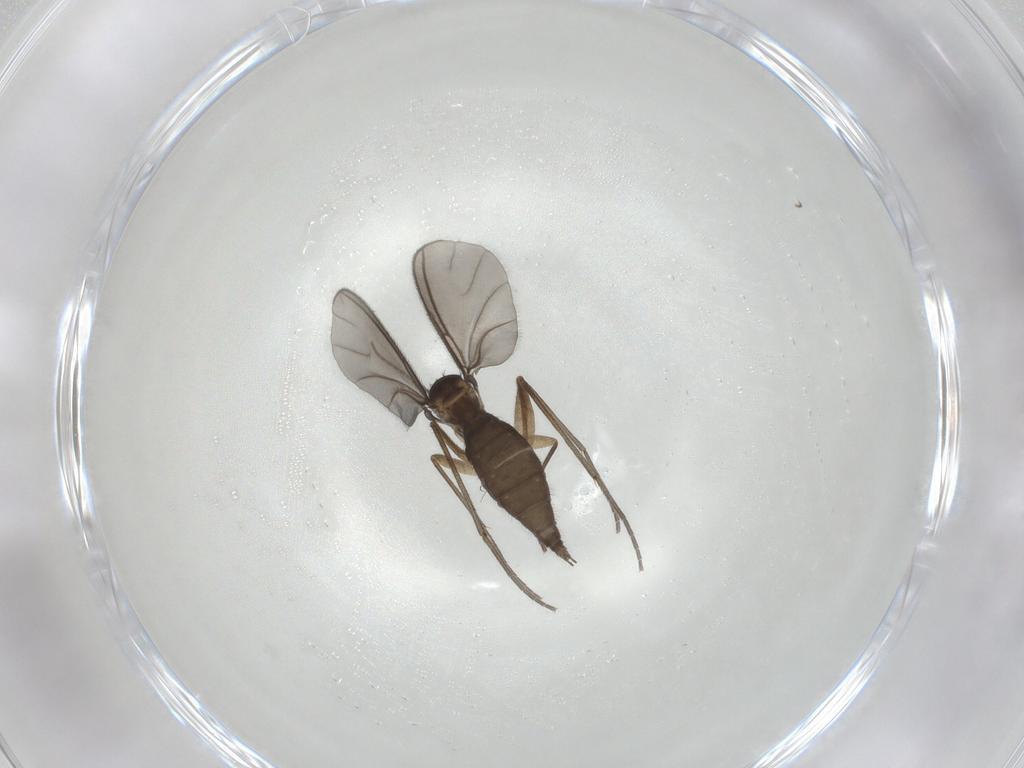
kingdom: Animalia
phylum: Arthropoda
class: Insecta
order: Diptera
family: Sciaridae
